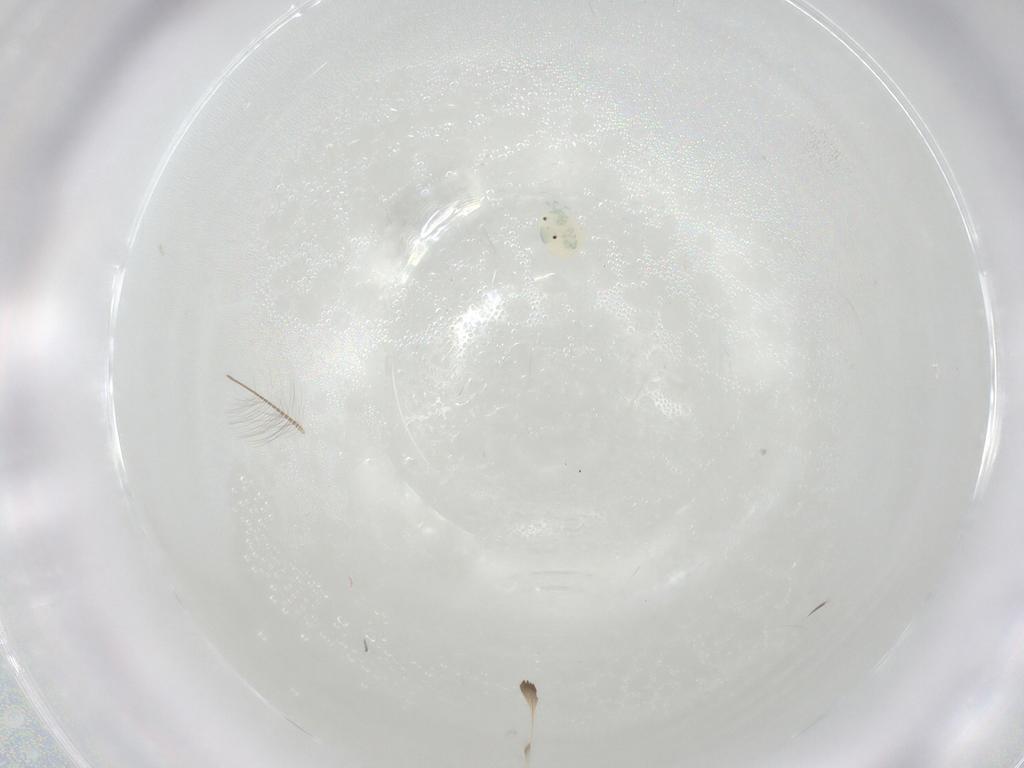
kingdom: Animalia
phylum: Arthropoda
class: Arachnida
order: Trombidiformes
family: Arrenuridae
